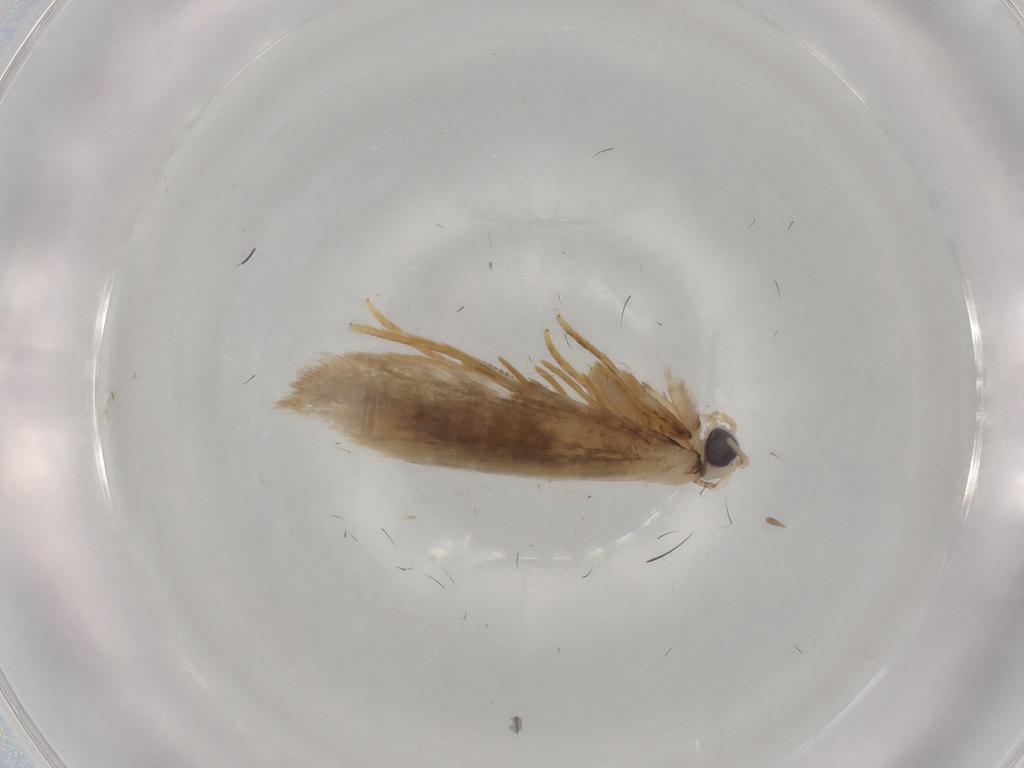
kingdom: Animalia
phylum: Arthropoda
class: Insecta
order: Lepidoptera
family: Tineidae
